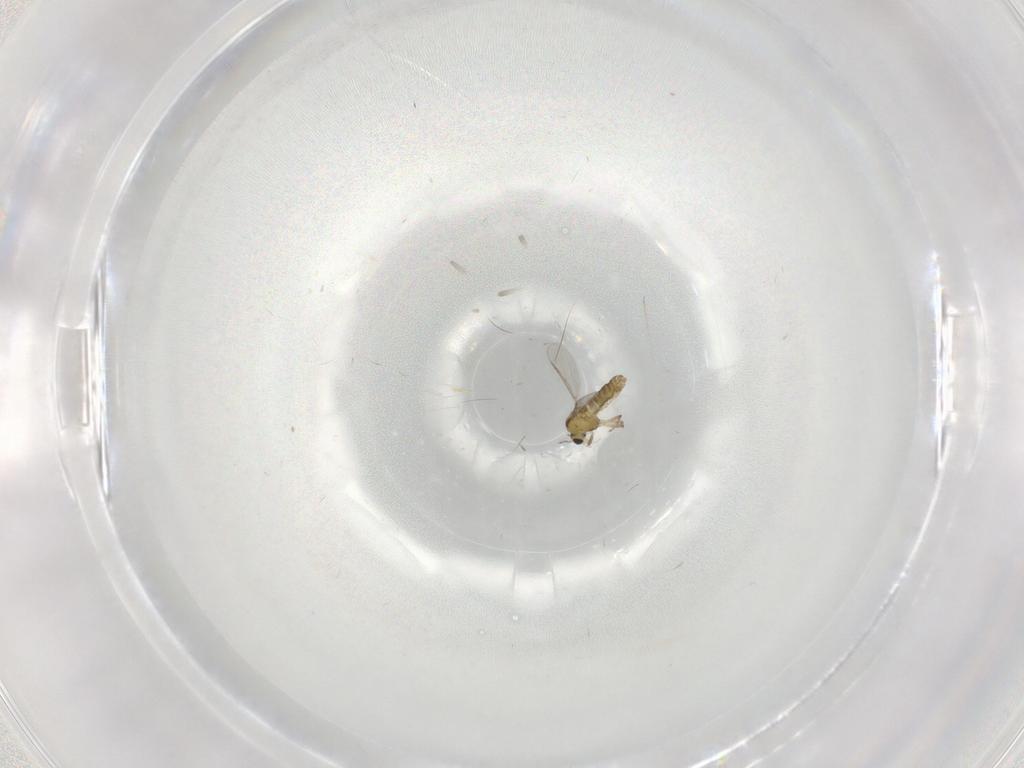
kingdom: Animalia
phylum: Arthropoda
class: Insecta
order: Diptera
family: Chironomidae
